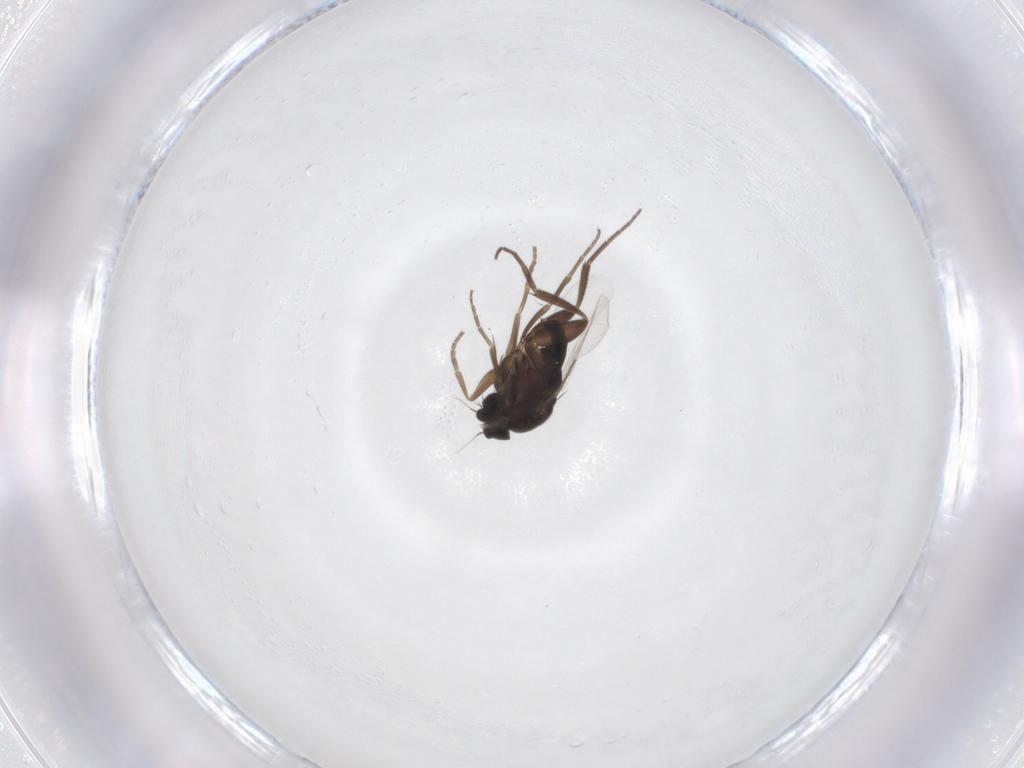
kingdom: Animalia
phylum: Arthropoda
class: Insecta
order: Diptera
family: Phoridae
